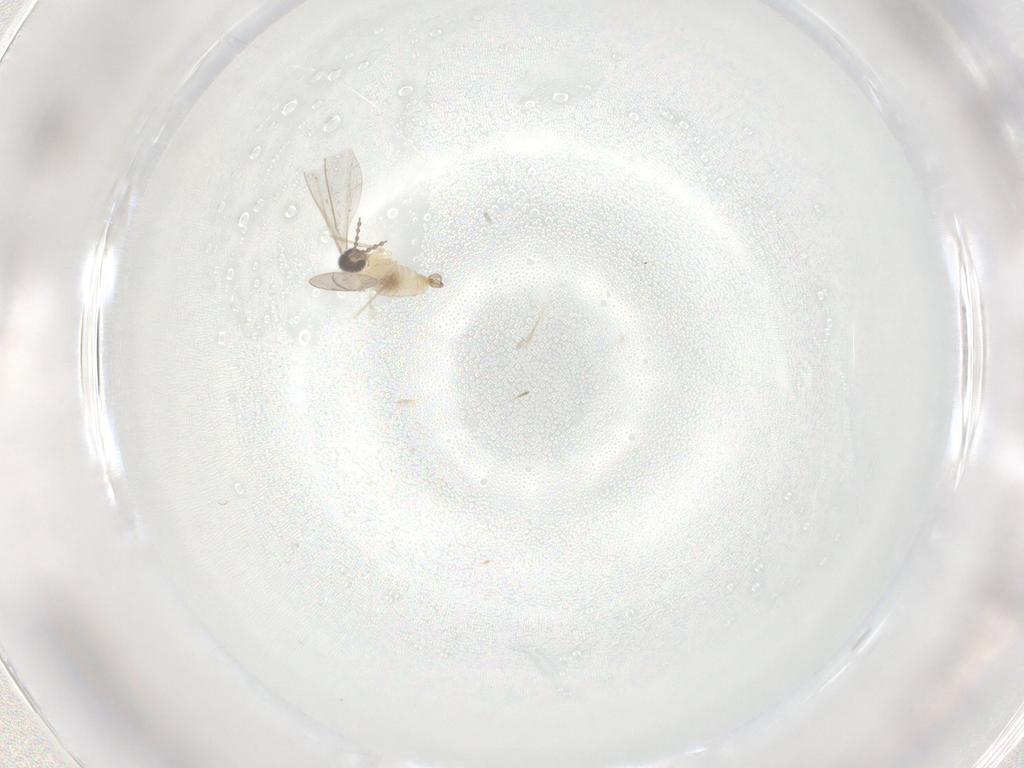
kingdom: Animalia
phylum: Arthropoda
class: Insecta
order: Diptera
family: Cecidomyiidae
